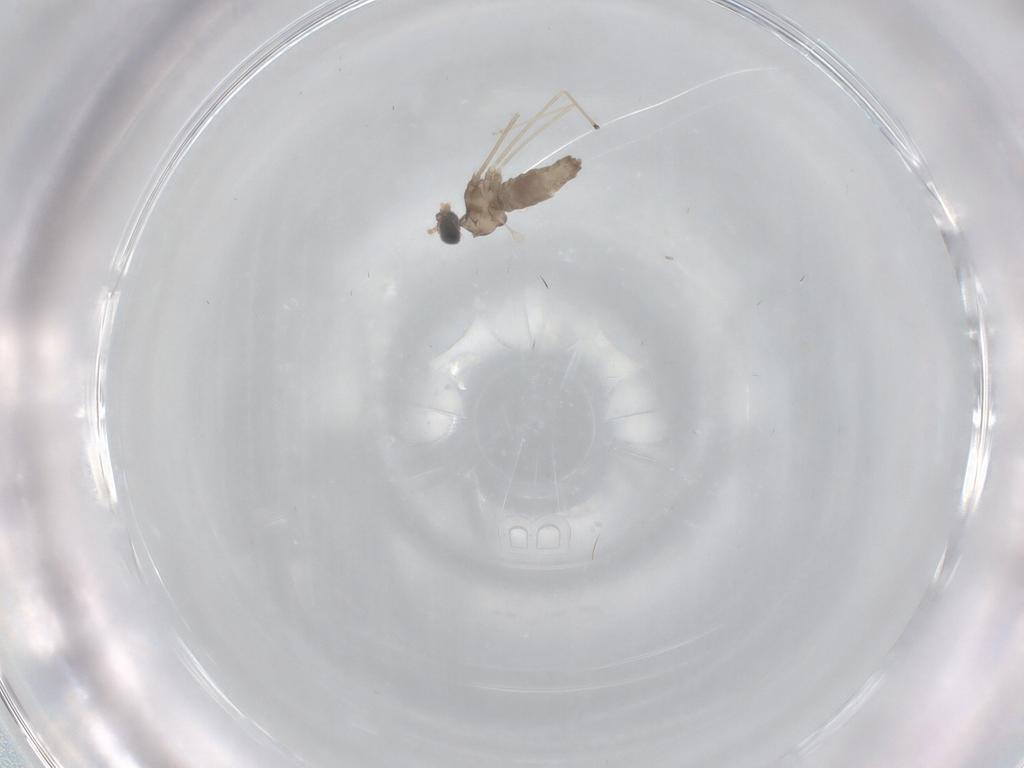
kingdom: Animalia
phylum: Arthropoda
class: Insecta
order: Diptera
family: Cecidomyiidae
